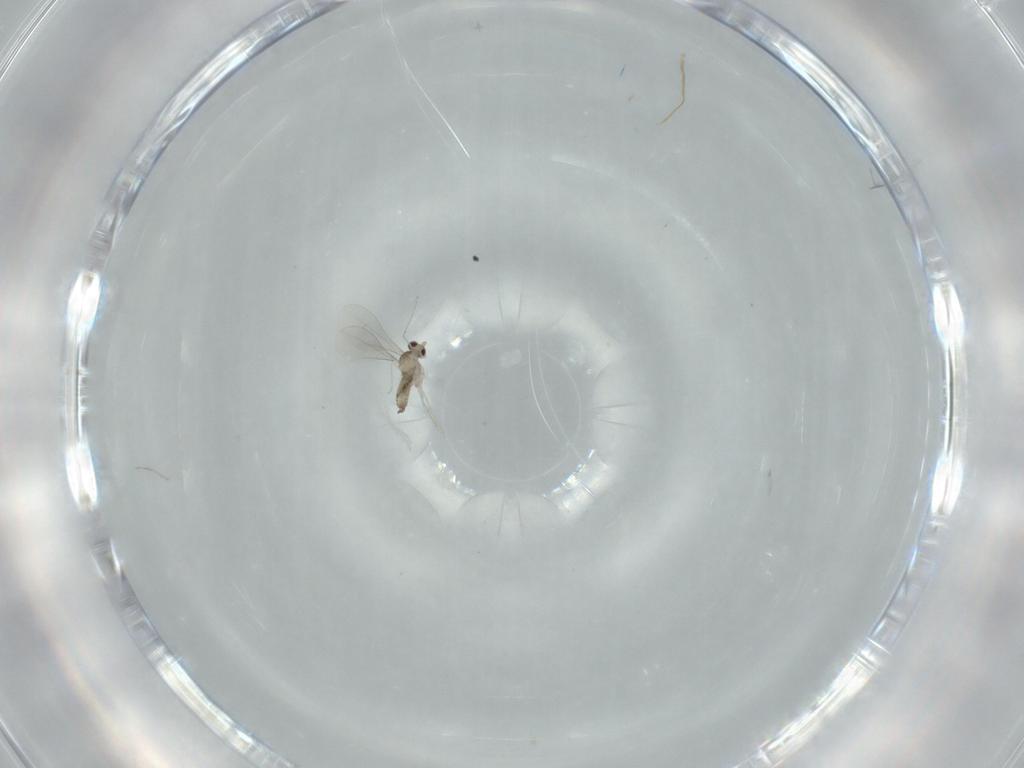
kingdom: Animalia
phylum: Arthropoda
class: Insecta
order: Diptera
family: Cecidomyiidae
